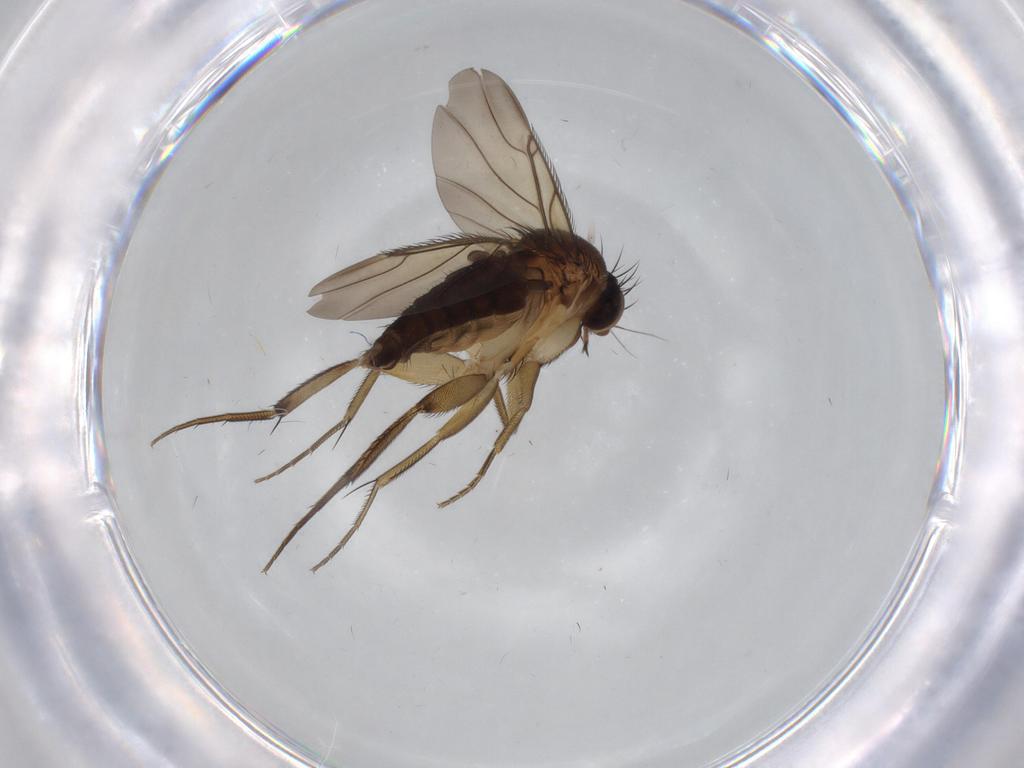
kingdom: Animalia
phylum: Arthropoda
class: Insecta
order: Diptera
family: Phoridae
